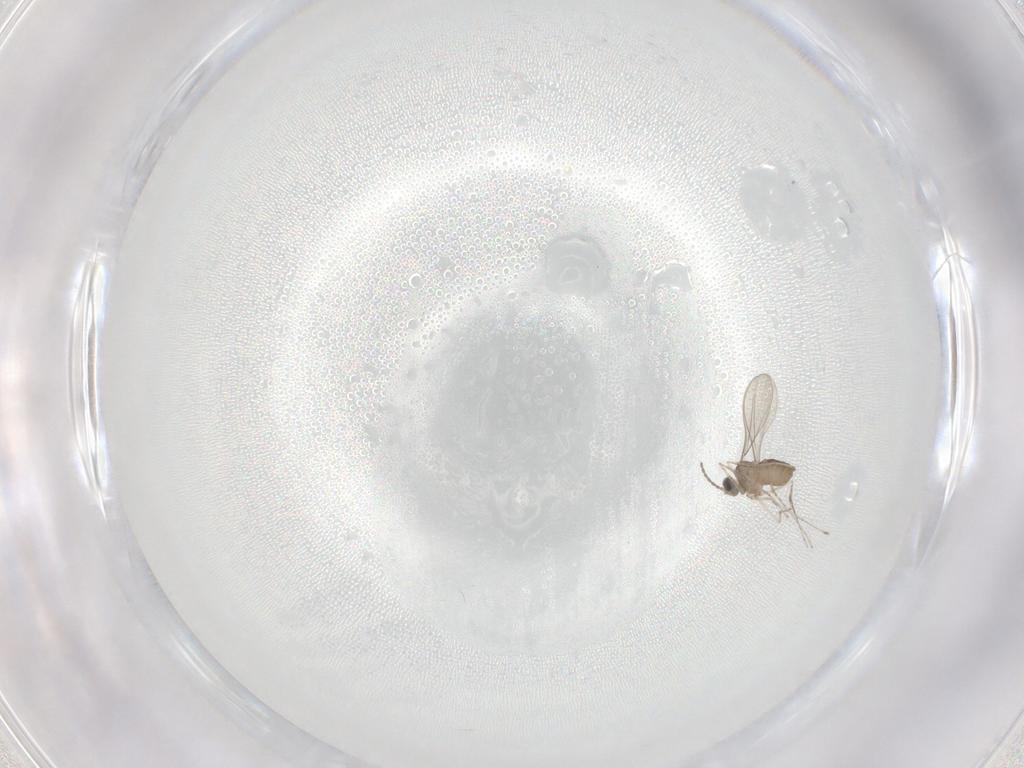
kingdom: Animalia
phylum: Arthropoda
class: Insecta
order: Diptera
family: Cecidomyiidae
